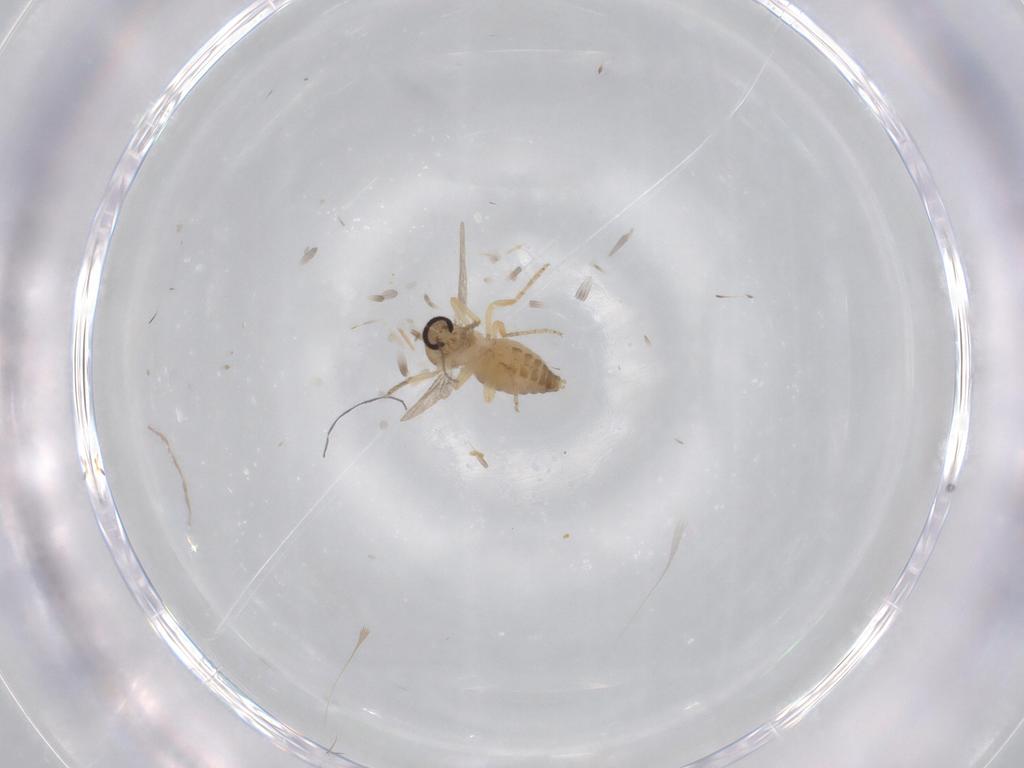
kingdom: Animalia
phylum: Arthropoda
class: Insecta
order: Diptera
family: Ceratopogonidae
